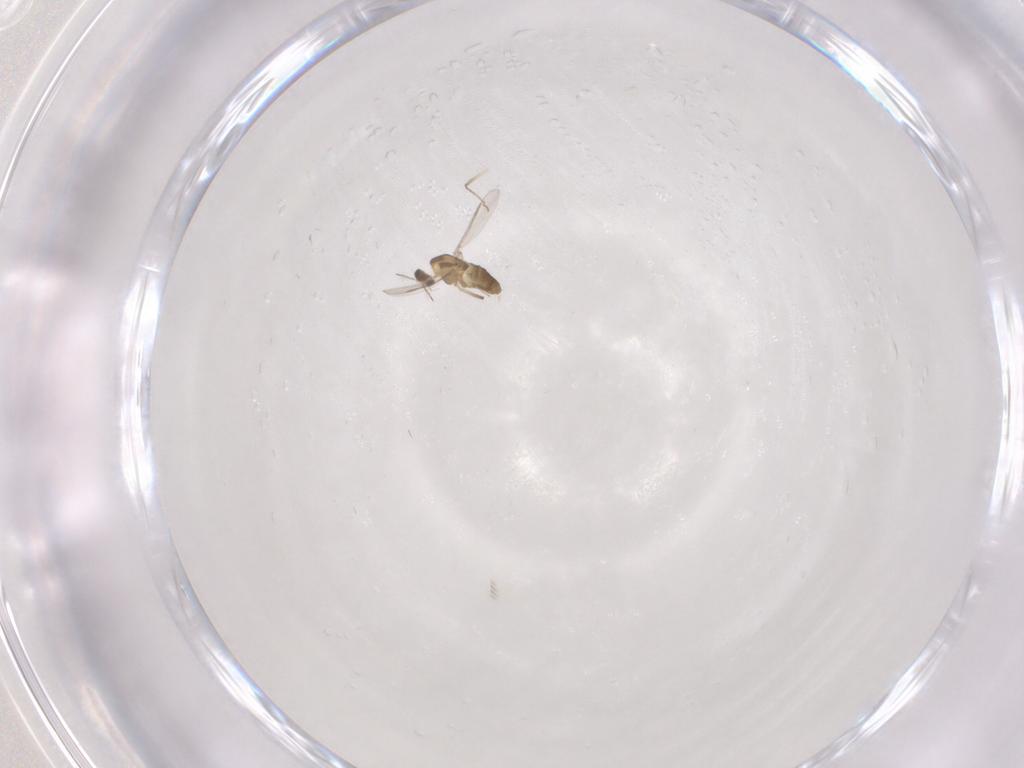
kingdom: Animalia
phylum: Arthropoda
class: Insecta
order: Diptera
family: Chironomidae
